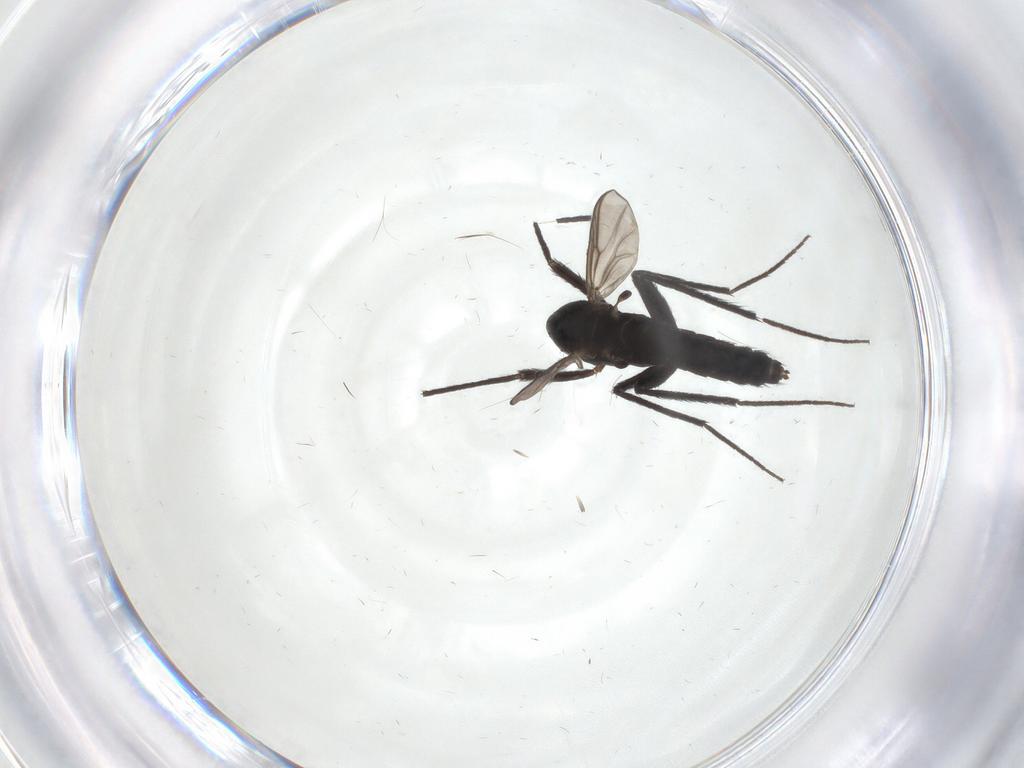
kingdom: Animalia
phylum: Arthropoda
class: Insecta
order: Diptera
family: Chironomidae
